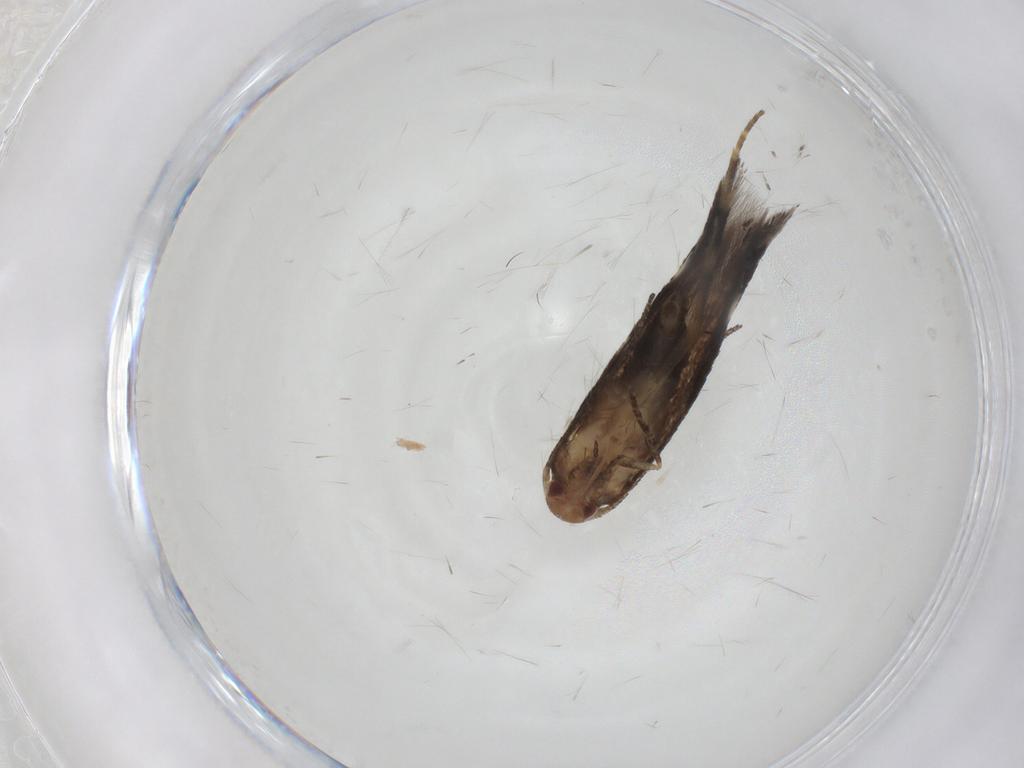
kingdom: Animalia
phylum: Arthropoda
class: Insecta
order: Lepidoptera
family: Momphidae
